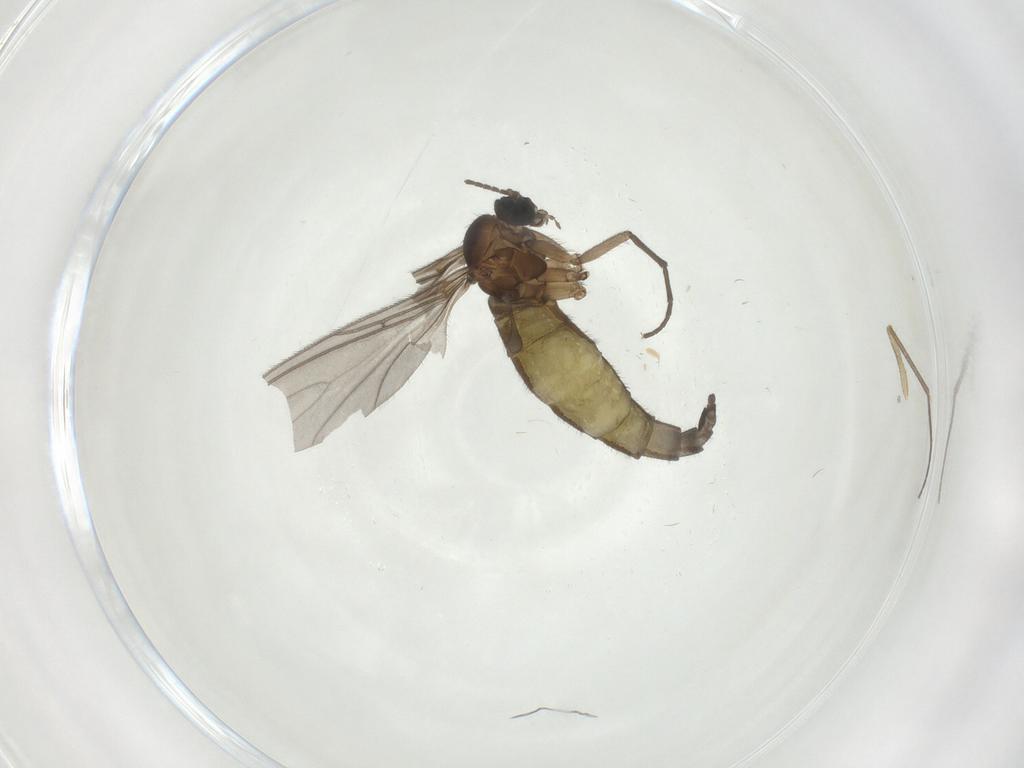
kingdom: Animalia
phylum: Arthropoda
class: Insecta
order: Diptera
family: Sciaridae
